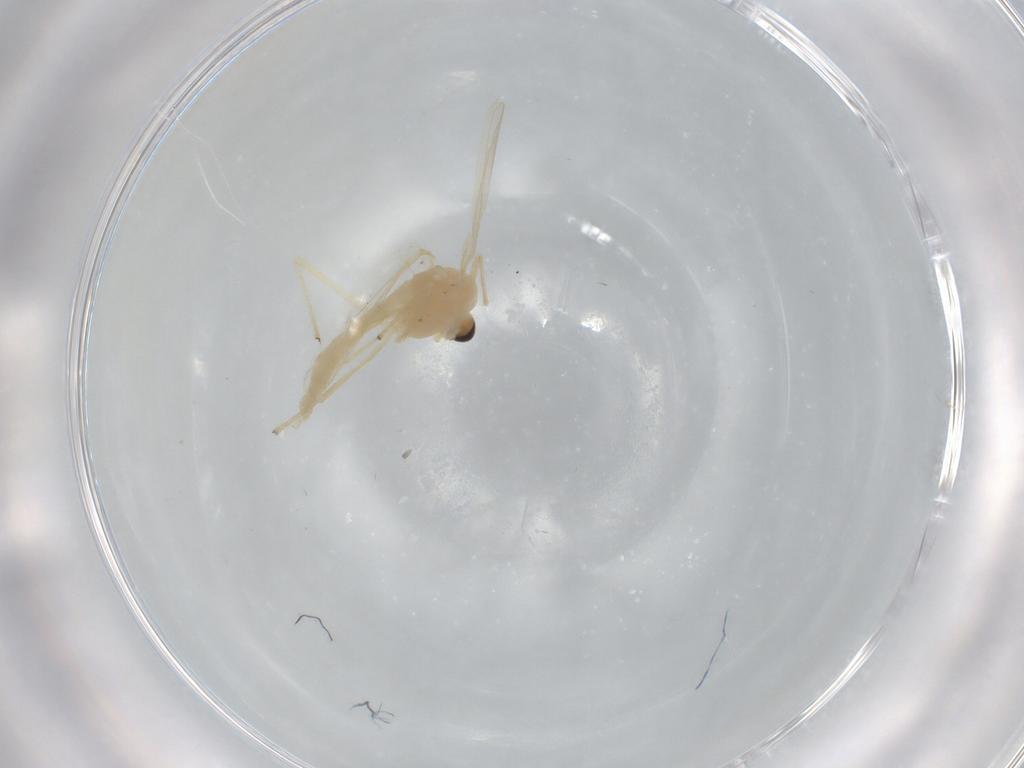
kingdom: Animalia
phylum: Arthropoda
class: Insecta
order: Diptera
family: Chironomidae
